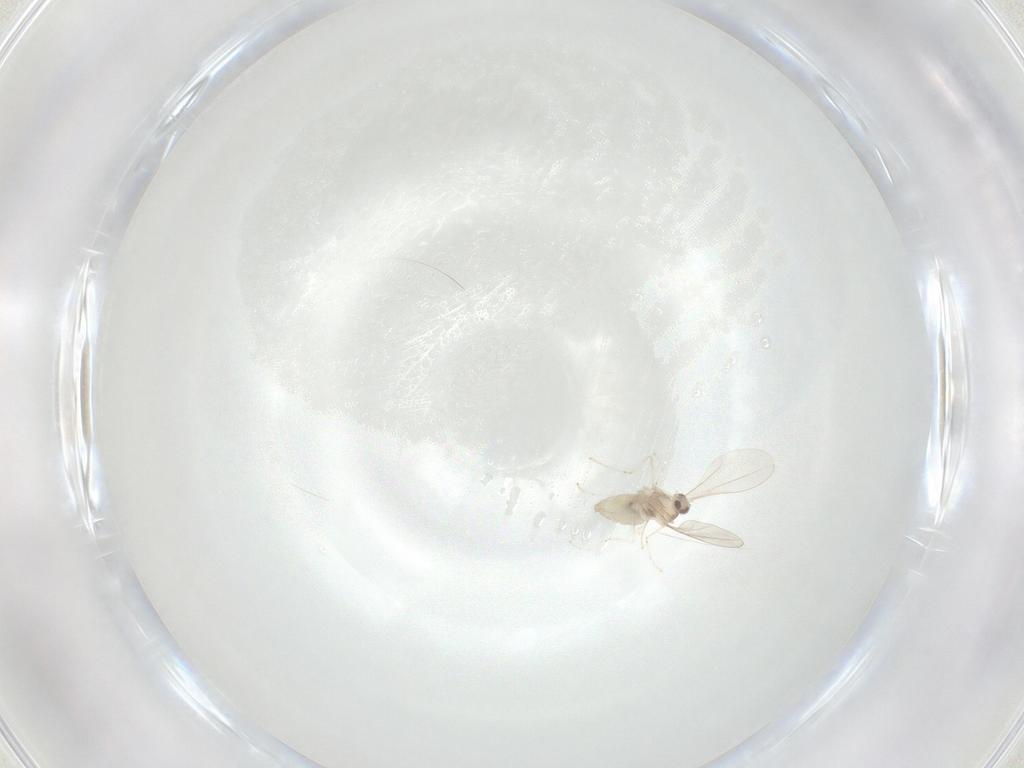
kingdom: Animalia
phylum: Arthropoda
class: Insecta
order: Diptera
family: Cecidomyiidae
